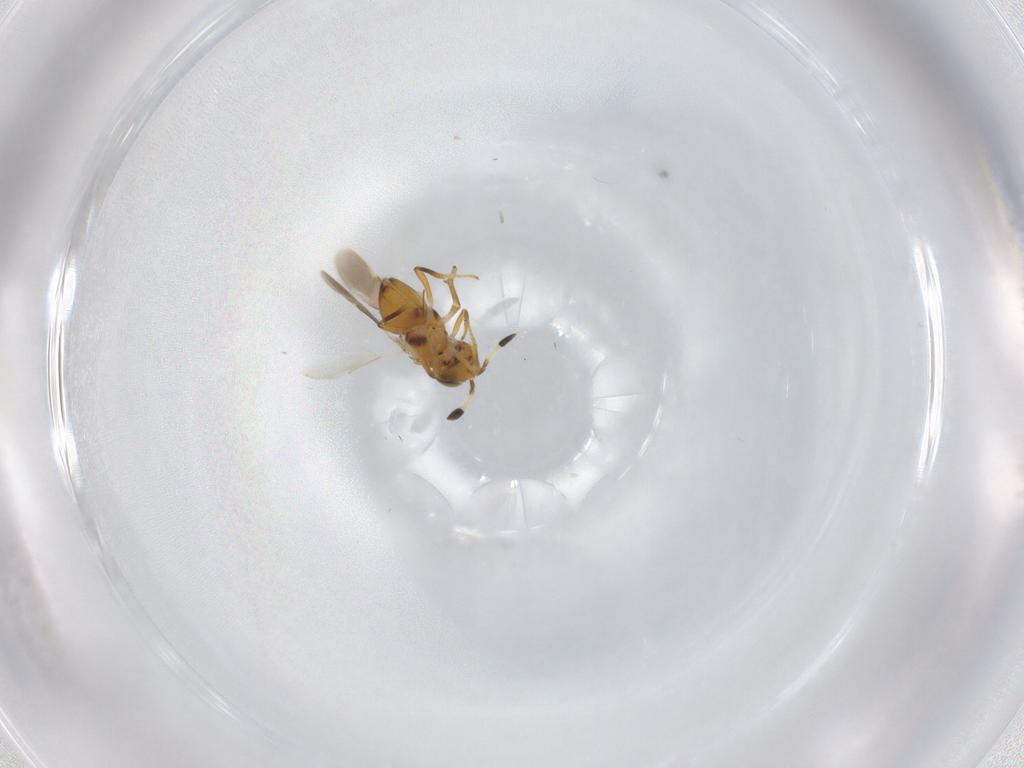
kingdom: Animalia
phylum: Arthropoda
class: Insecta
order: Hymenoptera
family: Encyrtidae
